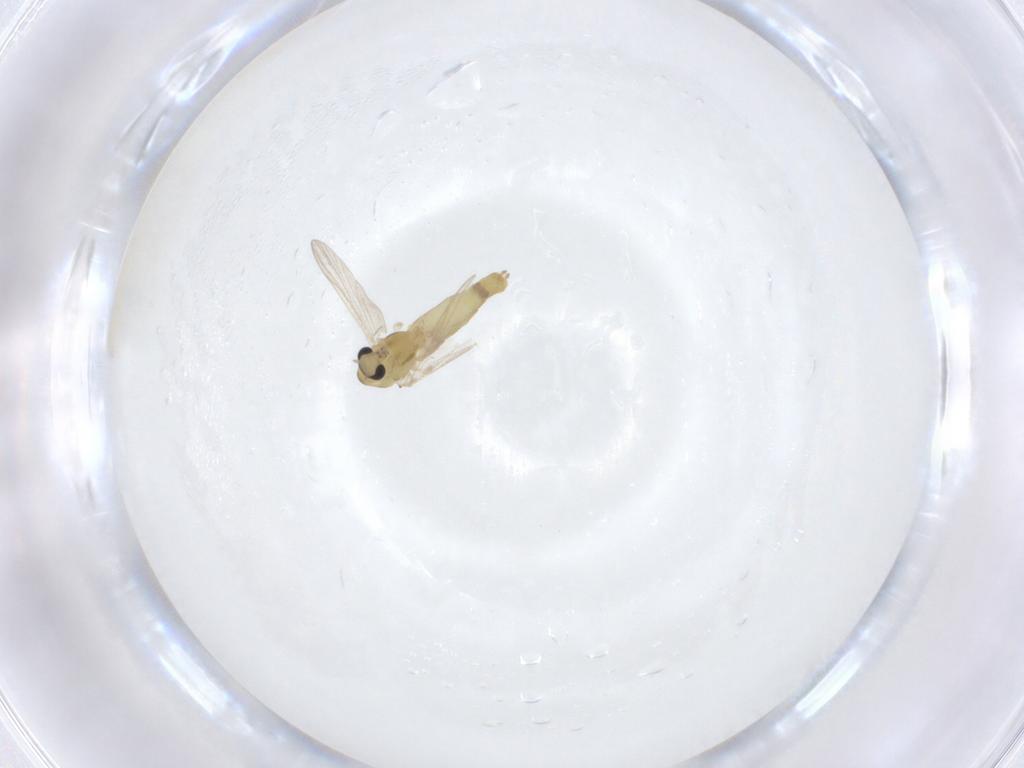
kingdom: Animalia
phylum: Arthropoda
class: Insecta
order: Diptera
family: Chironomidae
